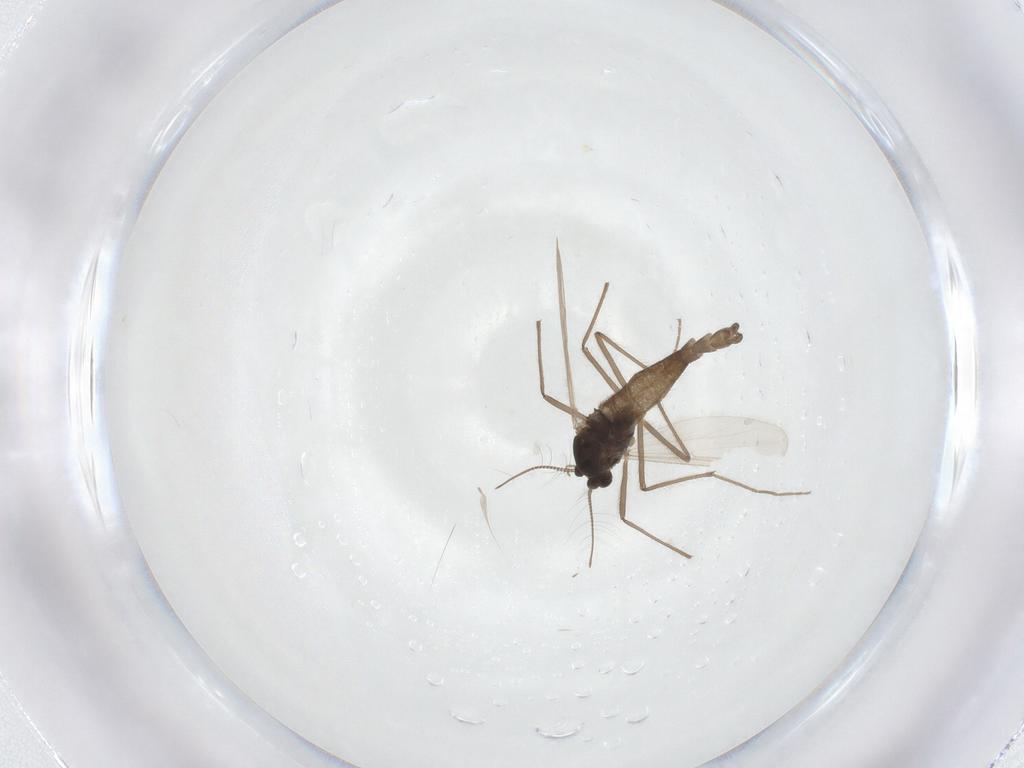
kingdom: Animalia
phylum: Arthropoda
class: Insecta
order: Diptera
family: Chironomidae
